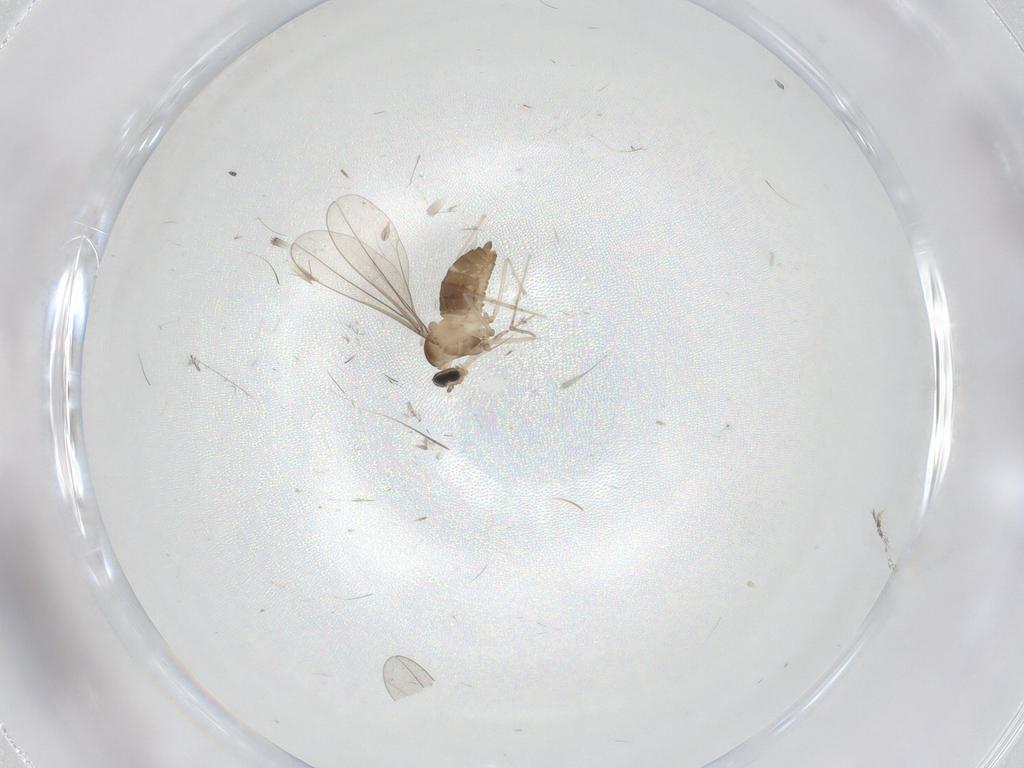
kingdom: Animalia
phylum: Arthropoda
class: Insecta
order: Diptera
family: Cecidomyiidae
